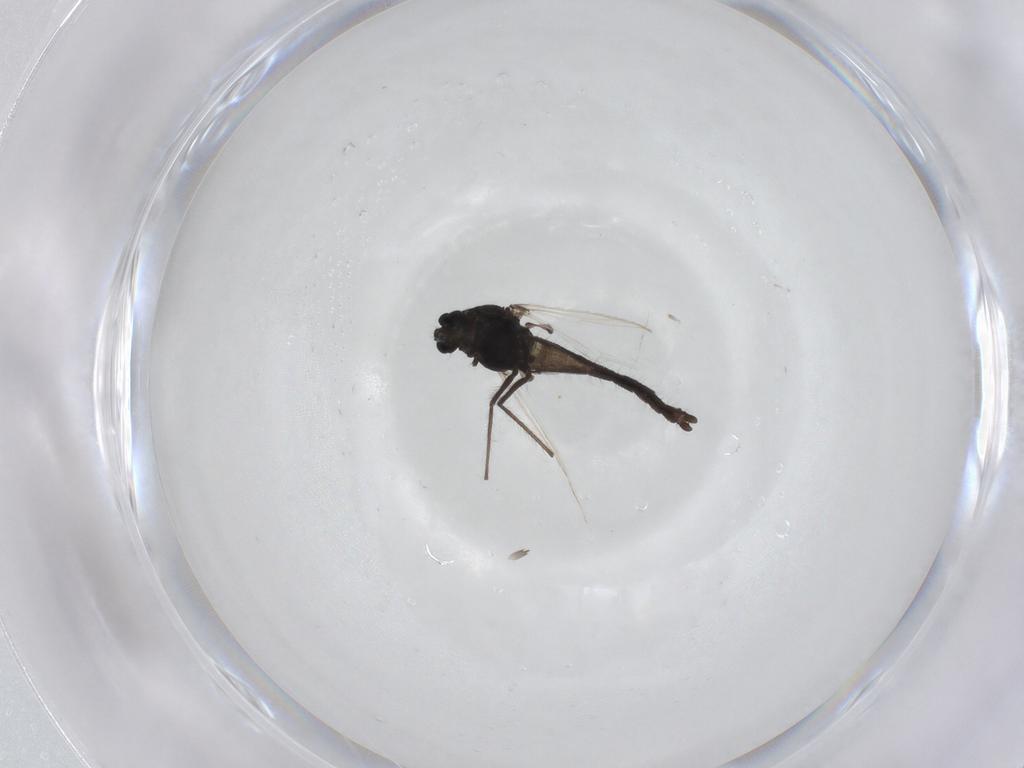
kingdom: Animalia
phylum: Arthropoda
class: Insecta
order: Diptera
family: Chironomidae
